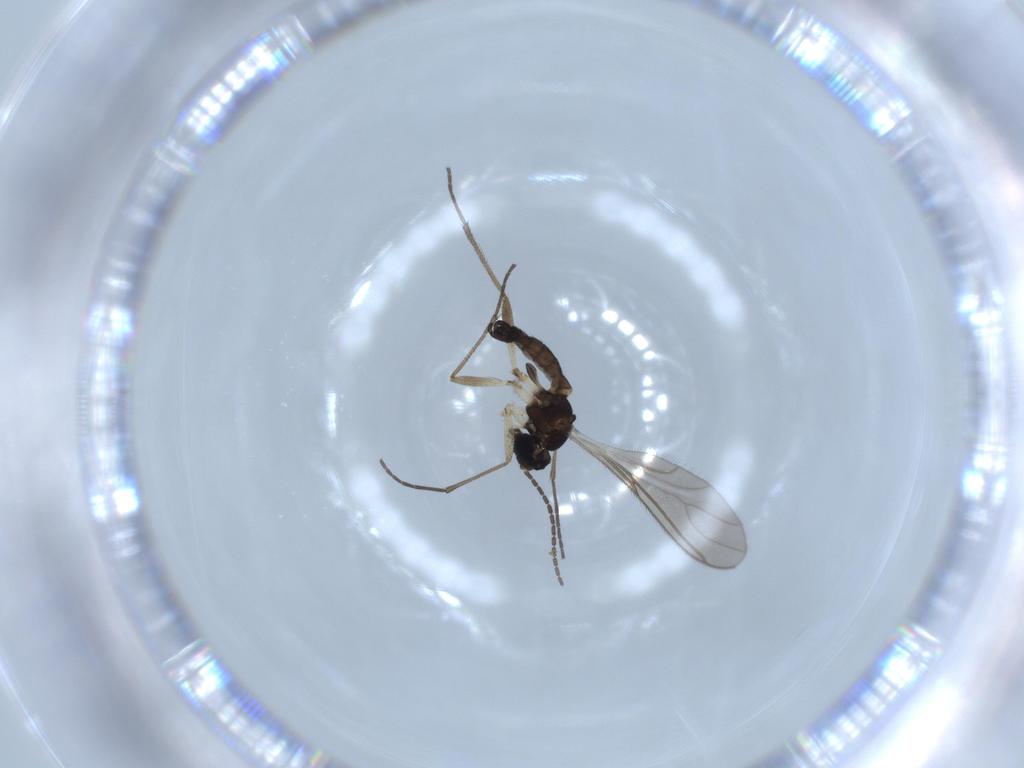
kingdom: Animalia
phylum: Arthropoda
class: Insecta
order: Diptera
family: Sciaridae
